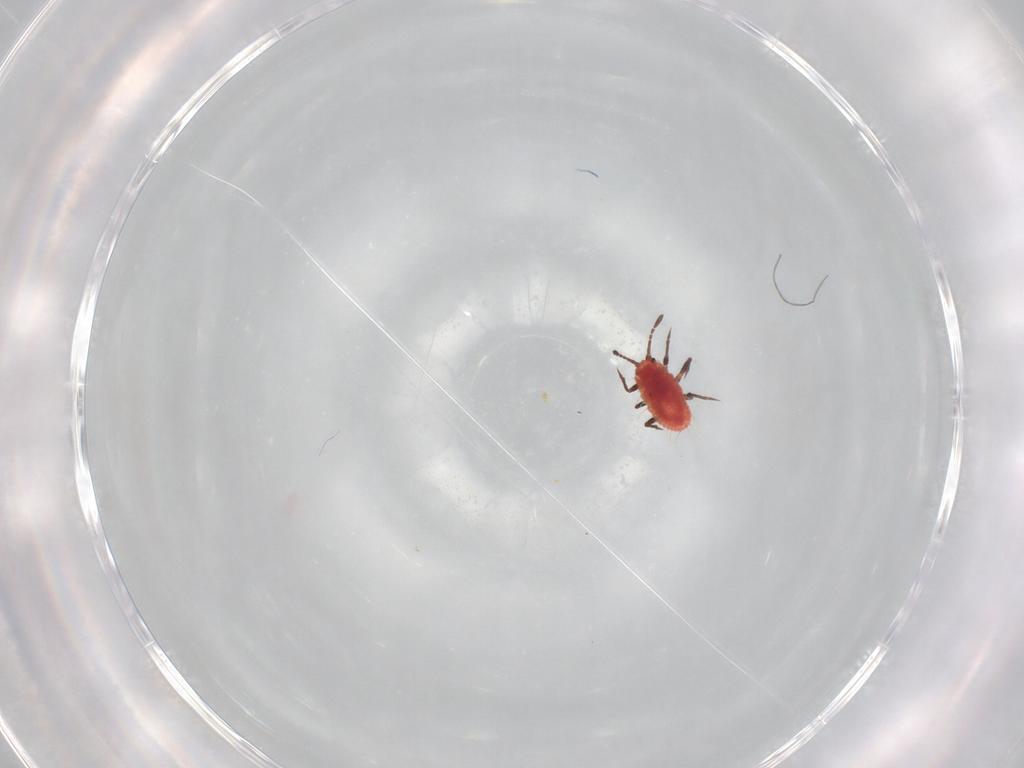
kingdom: Animalia
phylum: Arthropoda
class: Insecta
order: Hemiptera
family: Coccoidea_incertae_sedis
